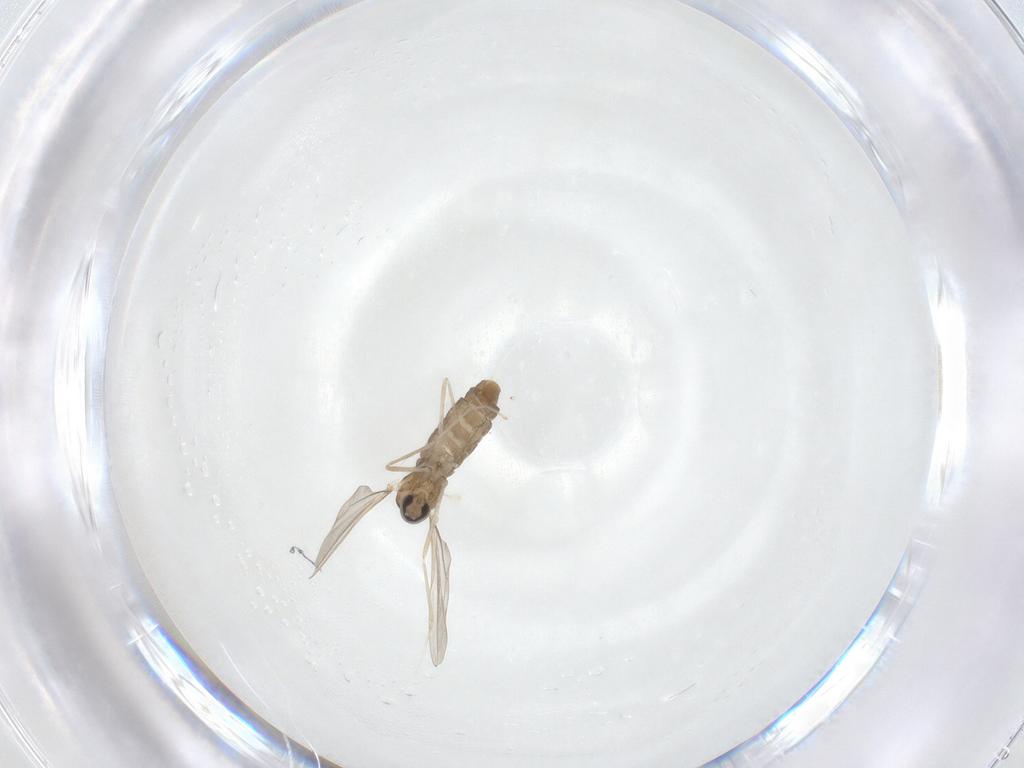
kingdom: Animalia
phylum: Arthropoda
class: Insecta
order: Diptera
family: Cecidomyiidae
